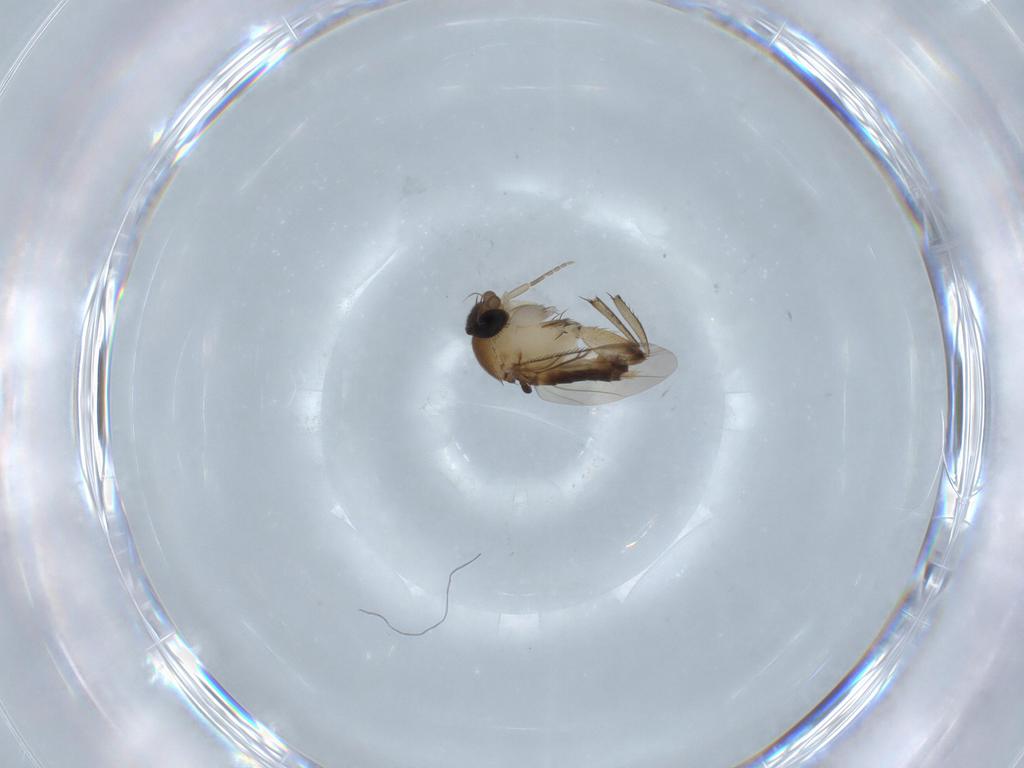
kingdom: Animalia
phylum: Arthropoda
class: Insecta
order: Diptera
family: Phoridae
